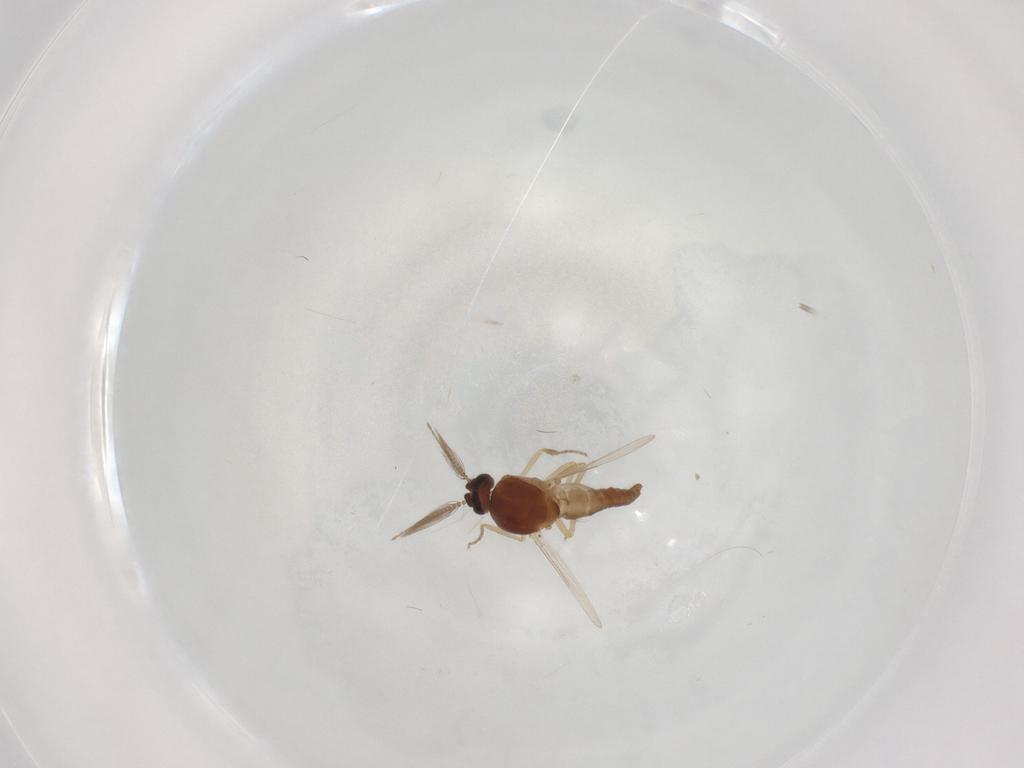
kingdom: Animalia
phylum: Arthropoda
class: Insecta
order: Diptera
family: Ceratopogonidae
